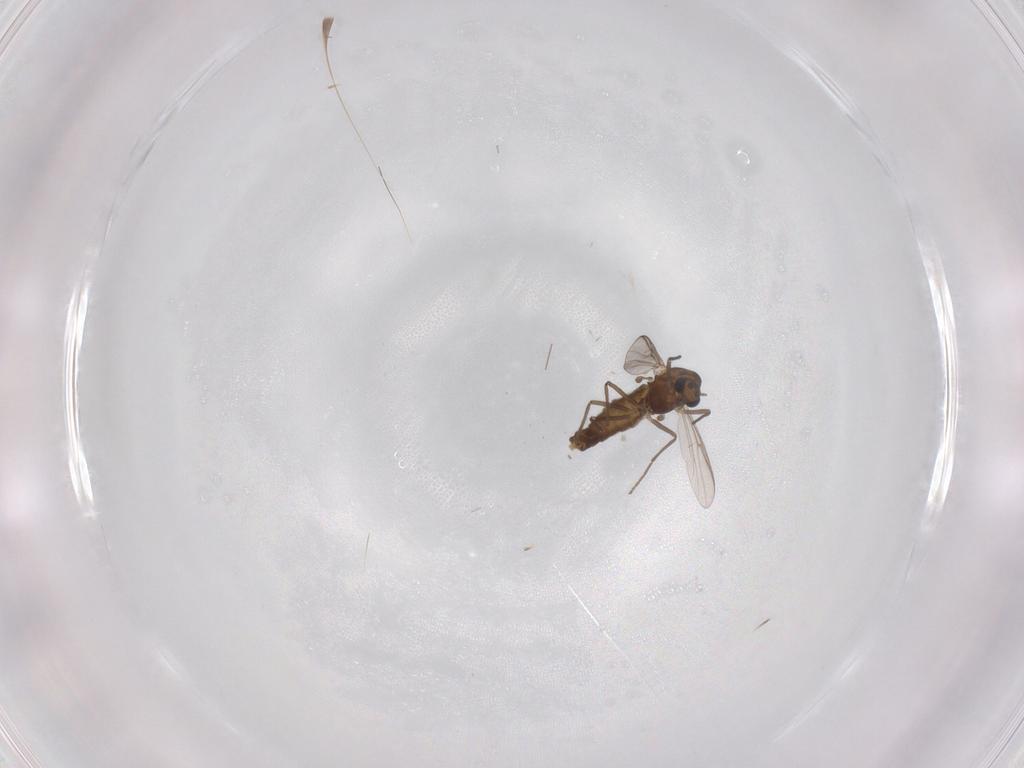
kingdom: Animalia
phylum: Arthropoda
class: Insecta
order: Diptera
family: Chironomidae
